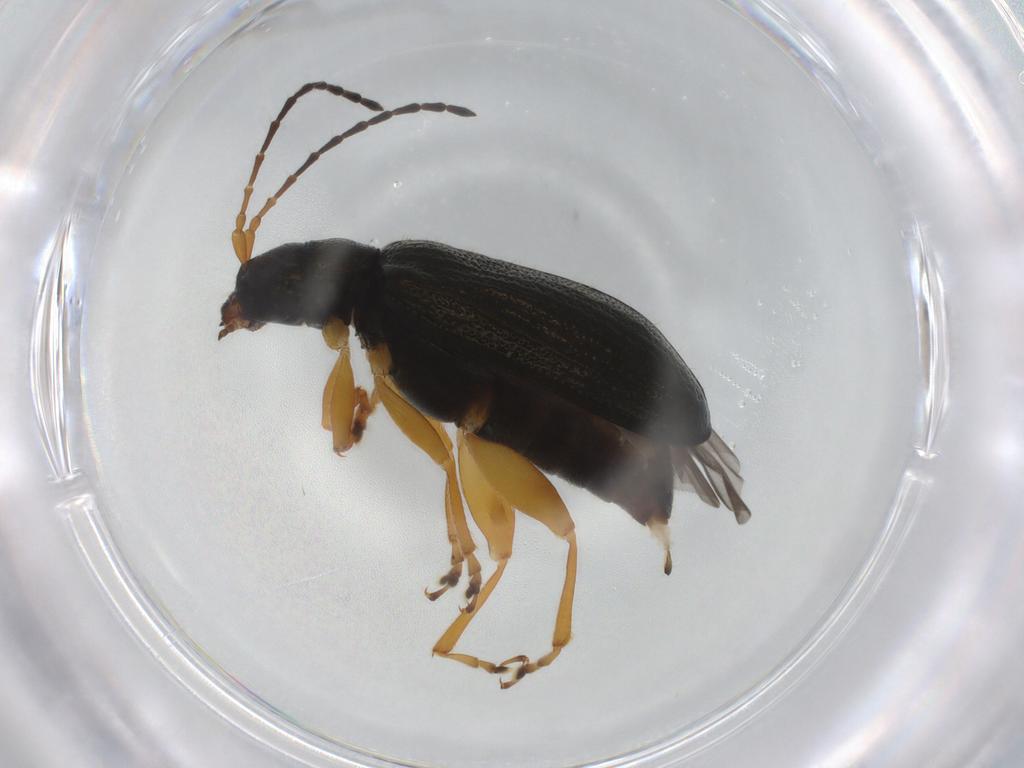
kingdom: Animalia
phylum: Arthropoda
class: Insecta
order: Coleoptera
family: Chrysomelidae
